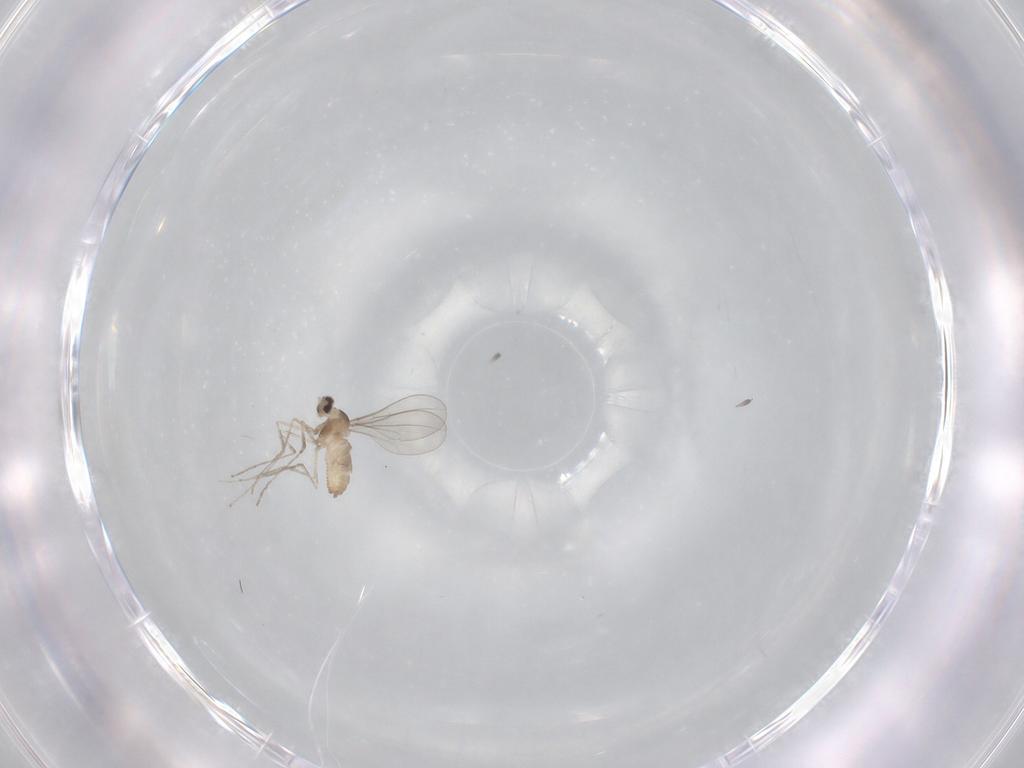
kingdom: Animalia
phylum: Arthropoda
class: Insecta
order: Diptera
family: Cecidomyiidae
